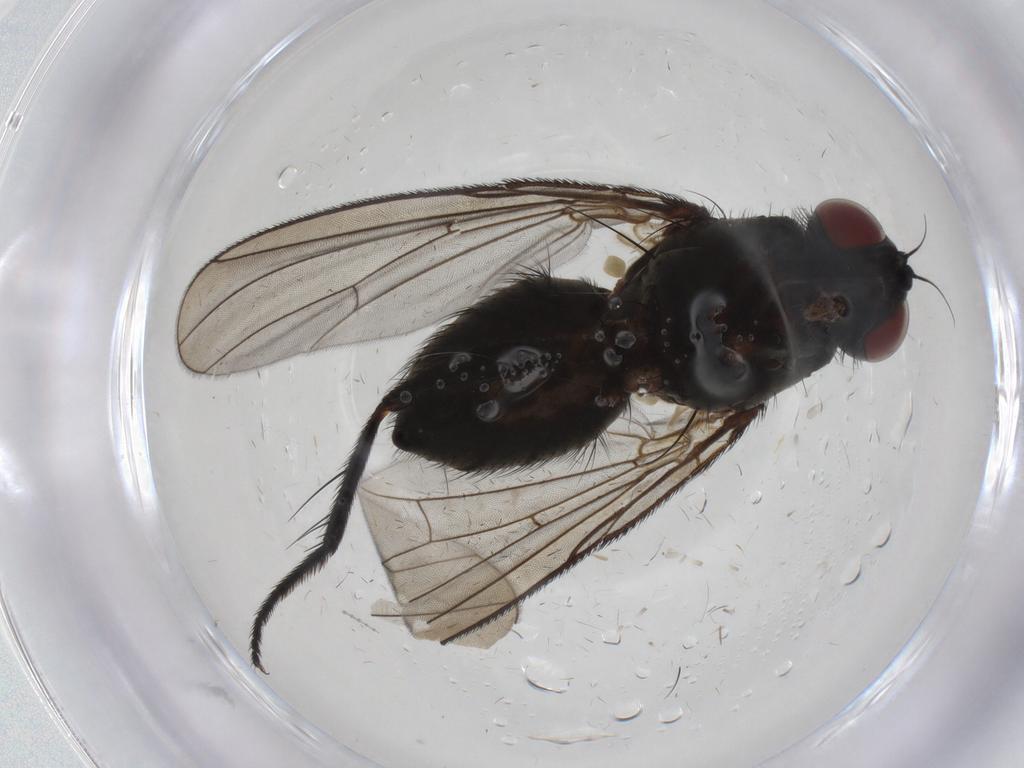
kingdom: Animalia
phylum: Arthropoda
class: Insecta
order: Diptera
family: Muscidae
